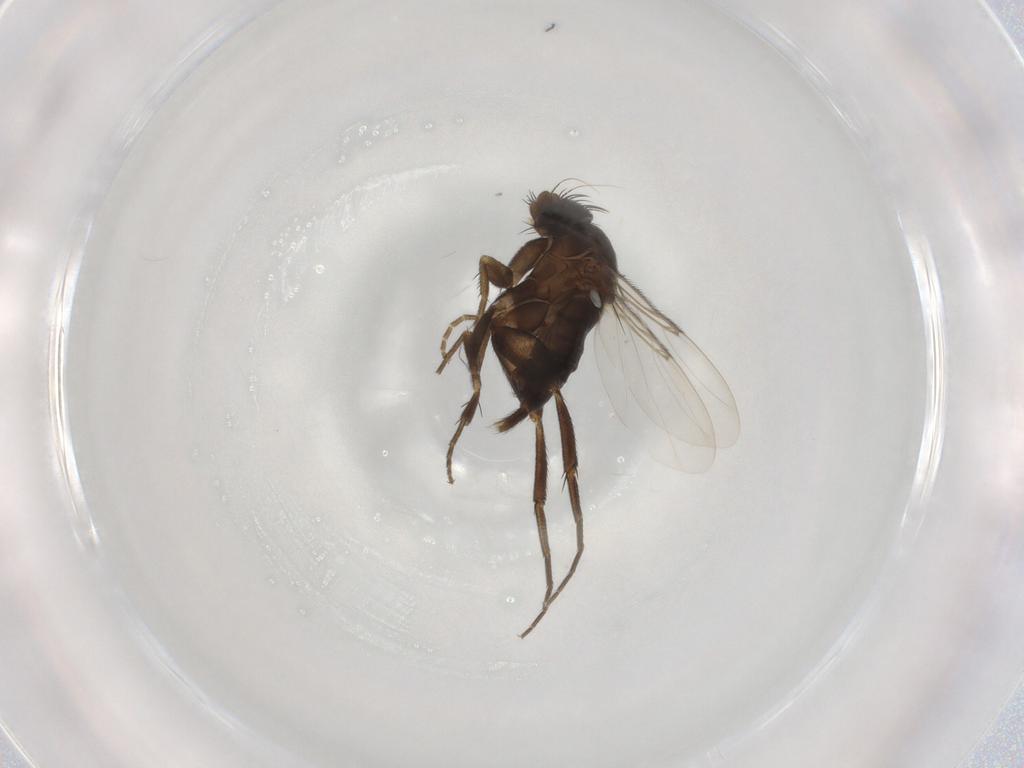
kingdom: Animalia
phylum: Arthropoda
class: Insecta
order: Diptera
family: Phoridae
